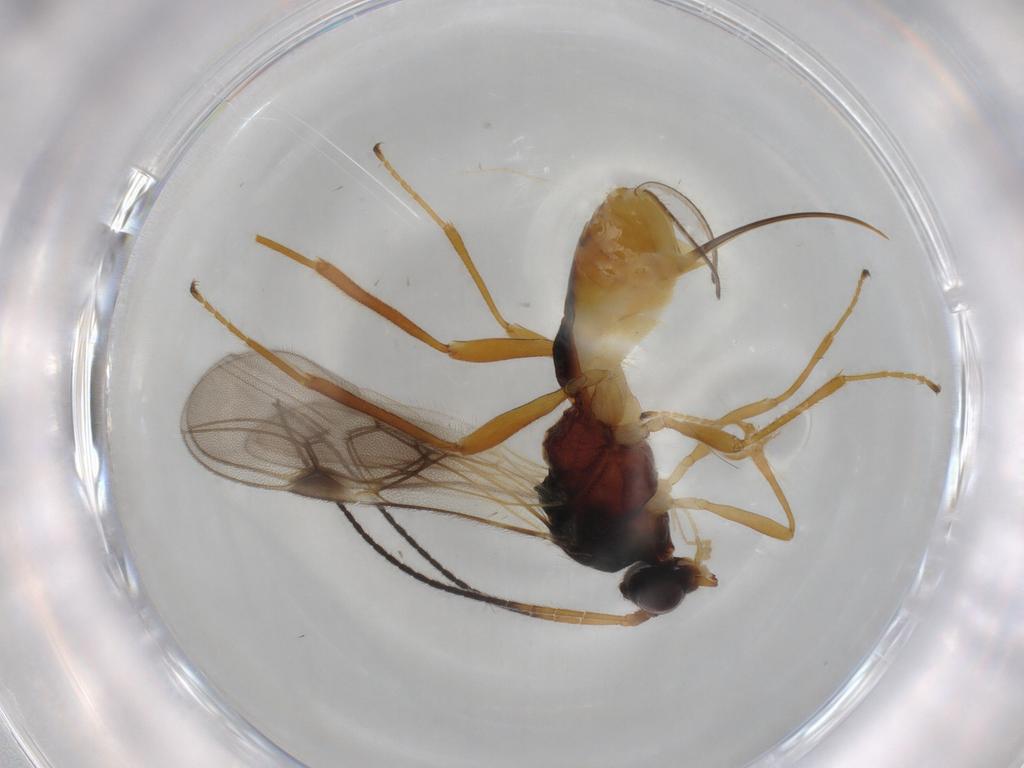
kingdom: Animalia
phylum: Arthropoda
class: Insecta
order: Hymenoptera
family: Braconidae
